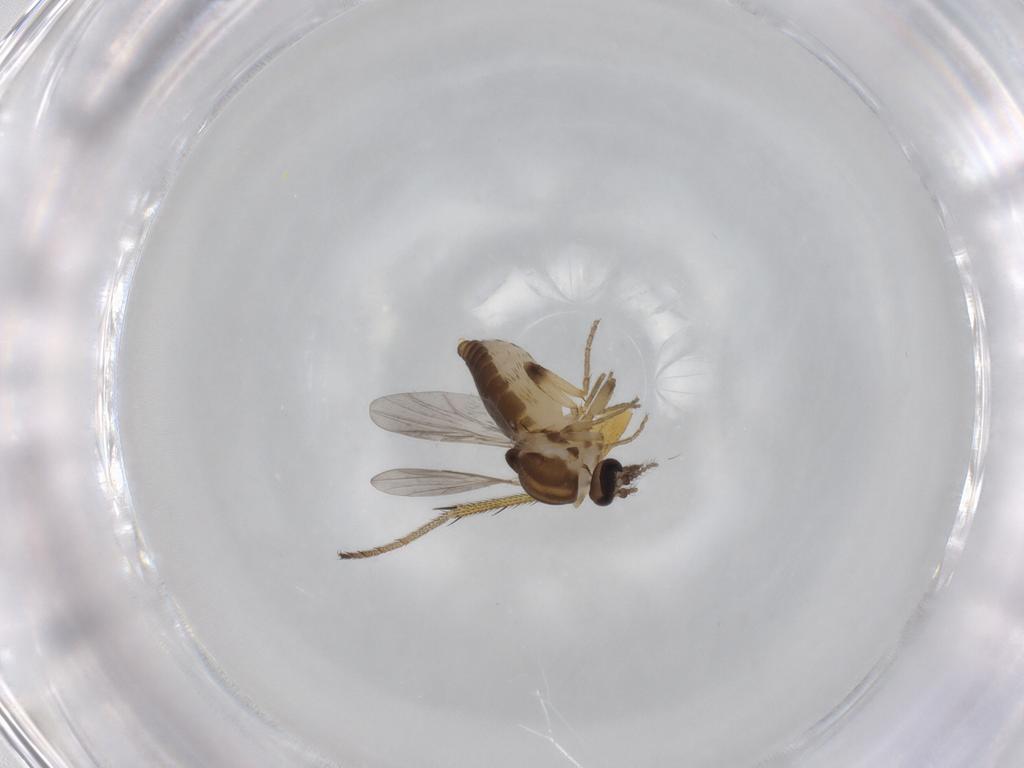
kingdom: Animalia
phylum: Arthropoda
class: Insecta
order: Diptera
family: Ceratopogonidae
